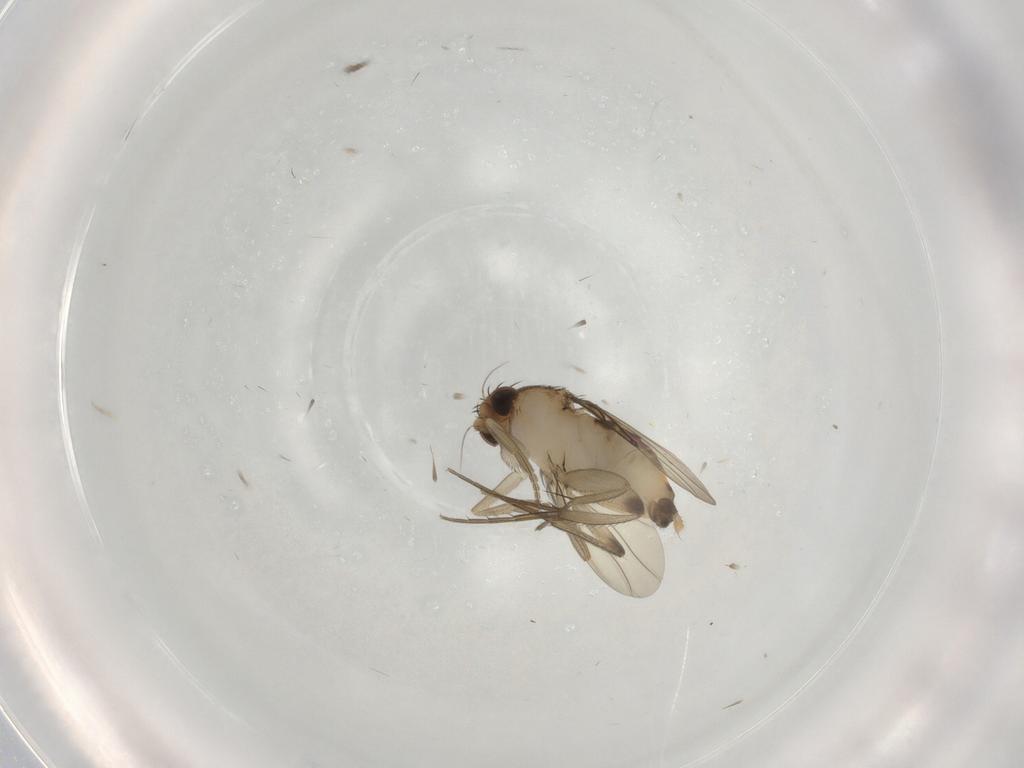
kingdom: Animalia
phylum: Arthropoda
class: Insecta
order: Diptera
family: Phoridae
